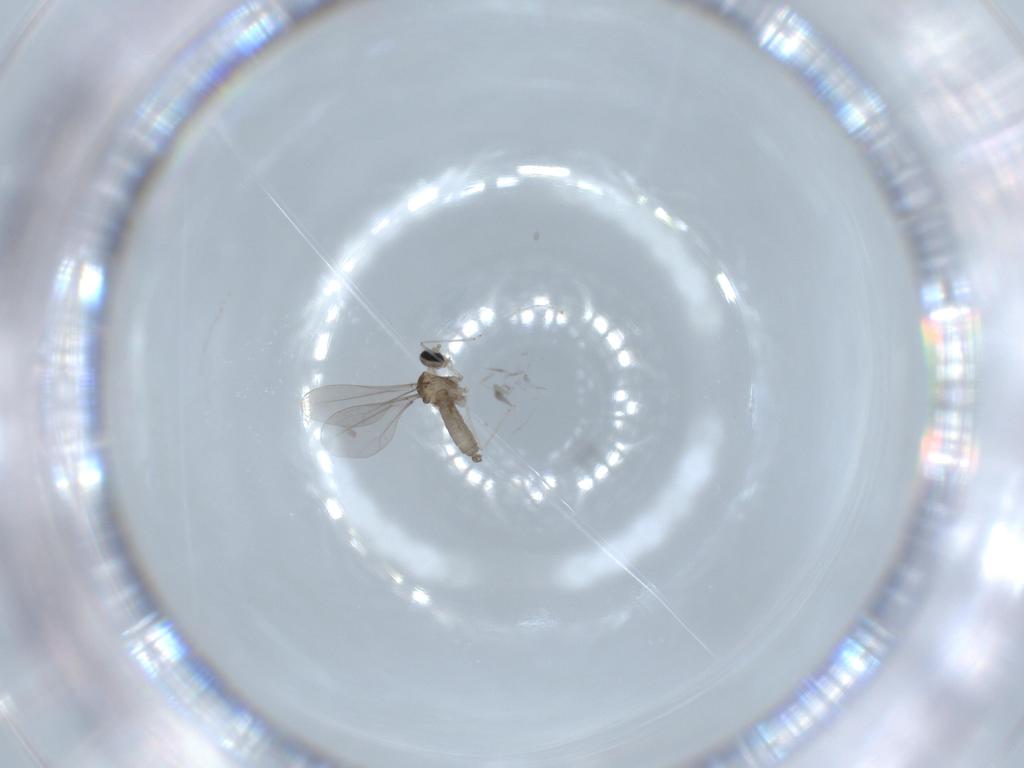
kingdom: Animalia
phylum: Arthropoda
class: Insecta
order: Diptera
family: Cecidomyiidae
